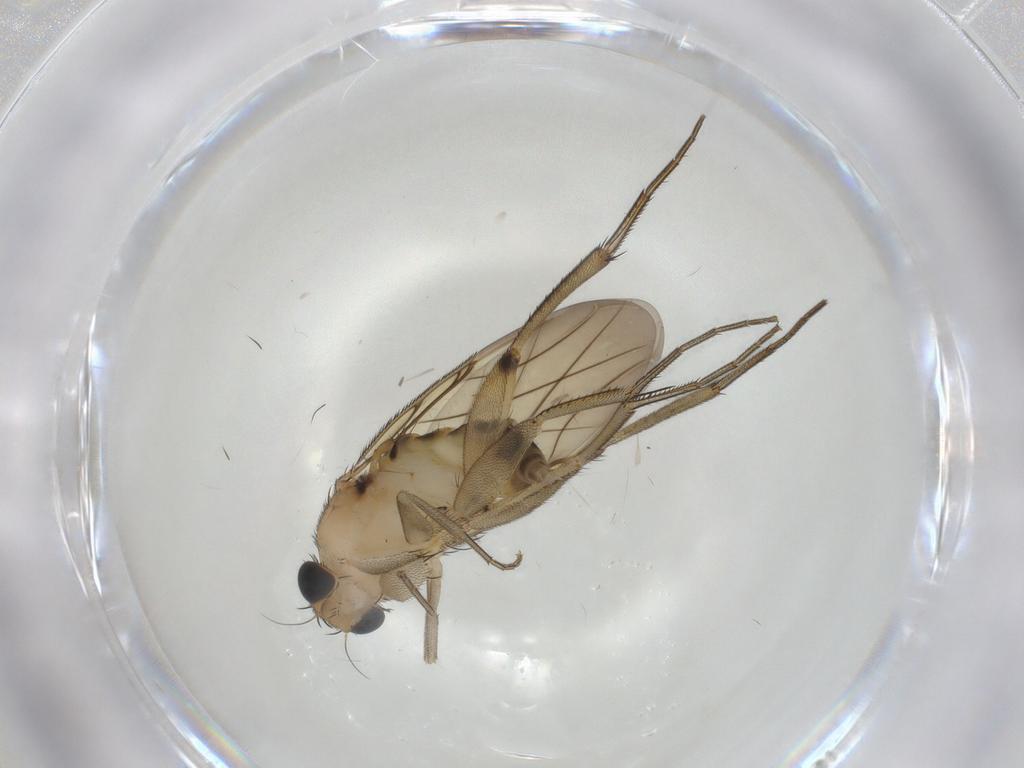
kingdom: Animalia
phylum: Arthropoda
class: Insecta
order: Diptera
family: Phoridae
